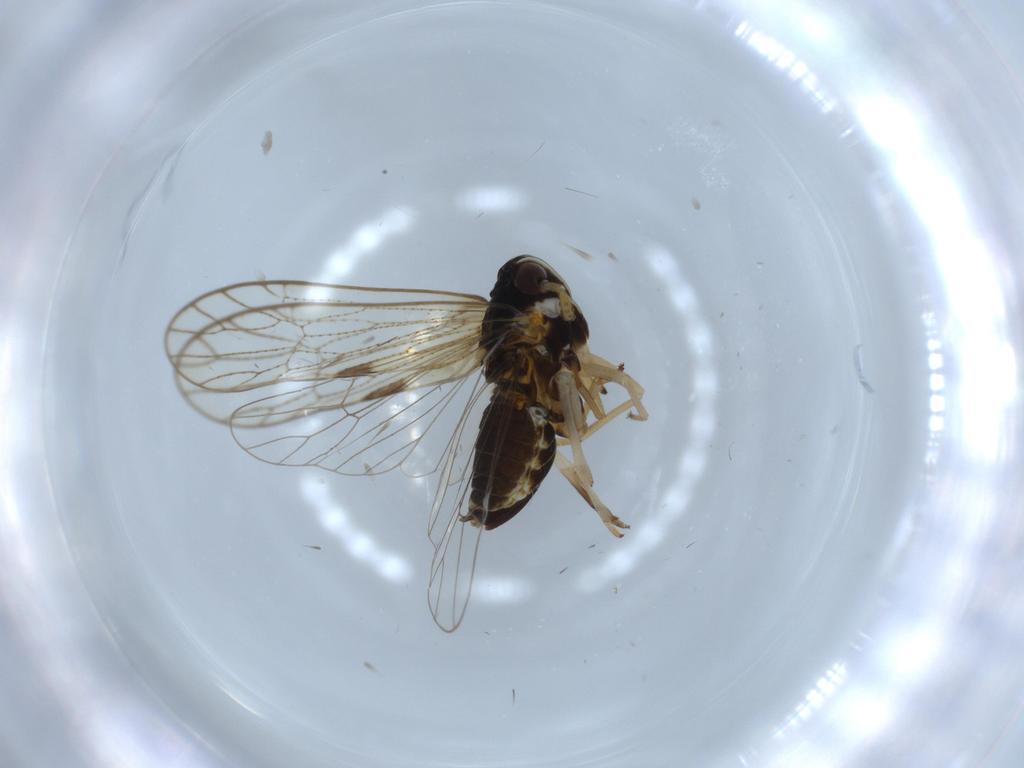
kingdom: Animalia
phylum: Arthropoda
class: Insecta
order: Hemiptera
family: Pyrrhocoridae
